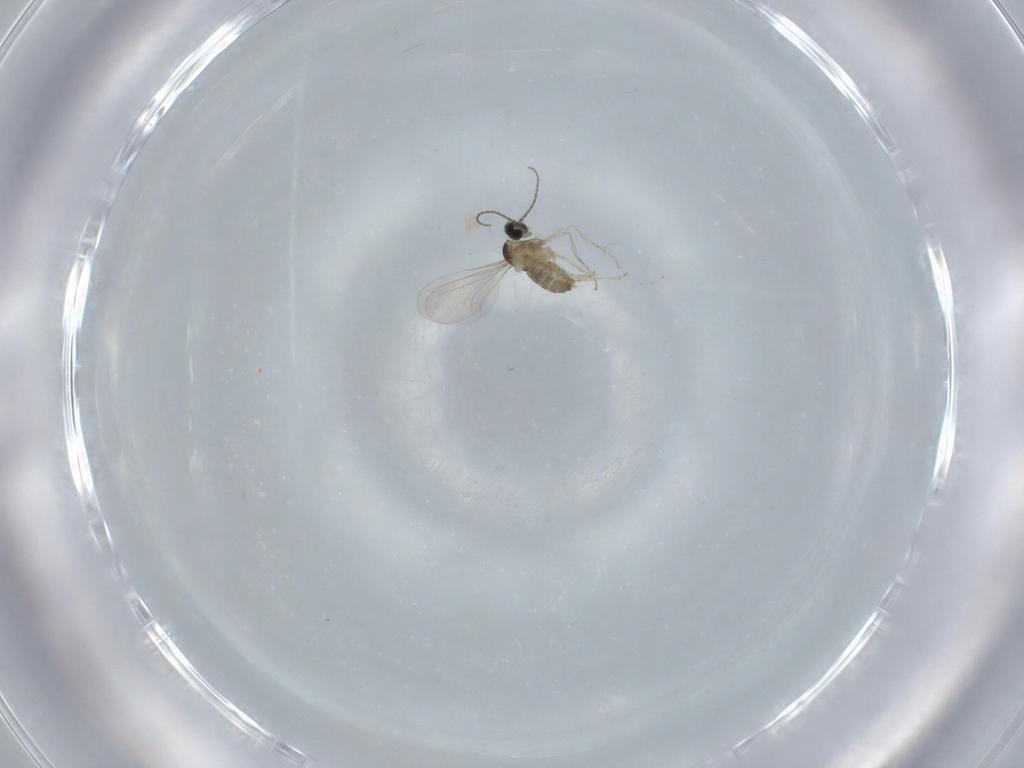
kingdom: Animalia
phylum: Arthropoda
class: Insecta
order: Diptera
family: Cecidomyiidae
